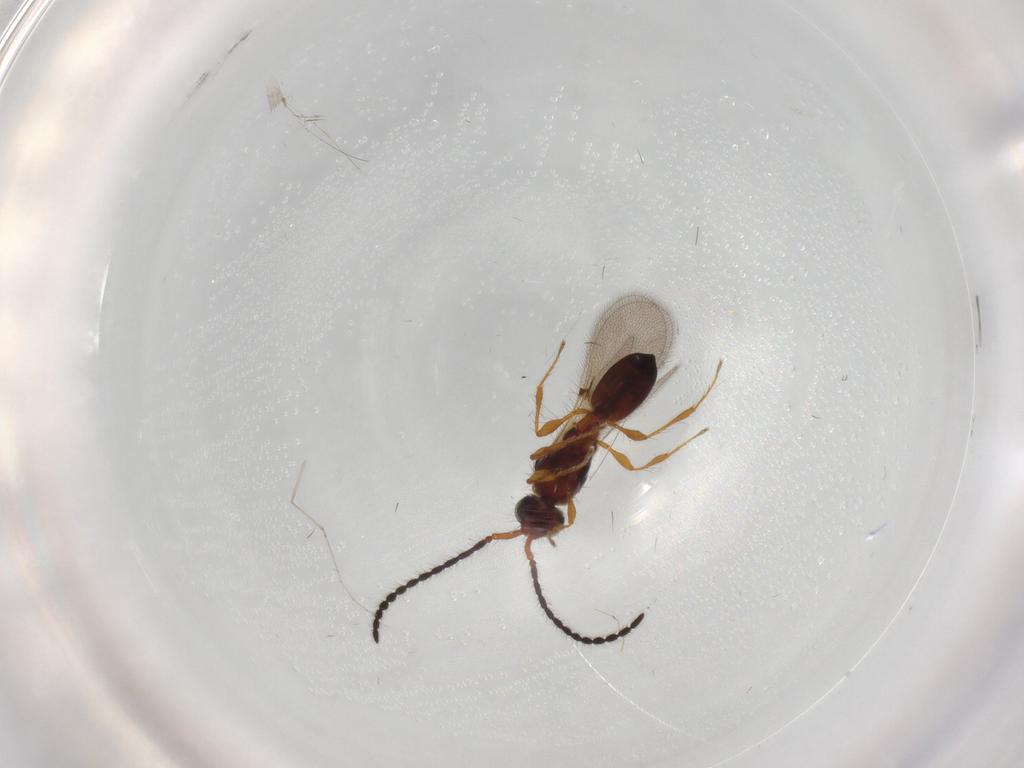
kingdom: Animalia
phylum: Arthropoda
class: Insecta
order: Hymenoptera
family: Diapriidae
